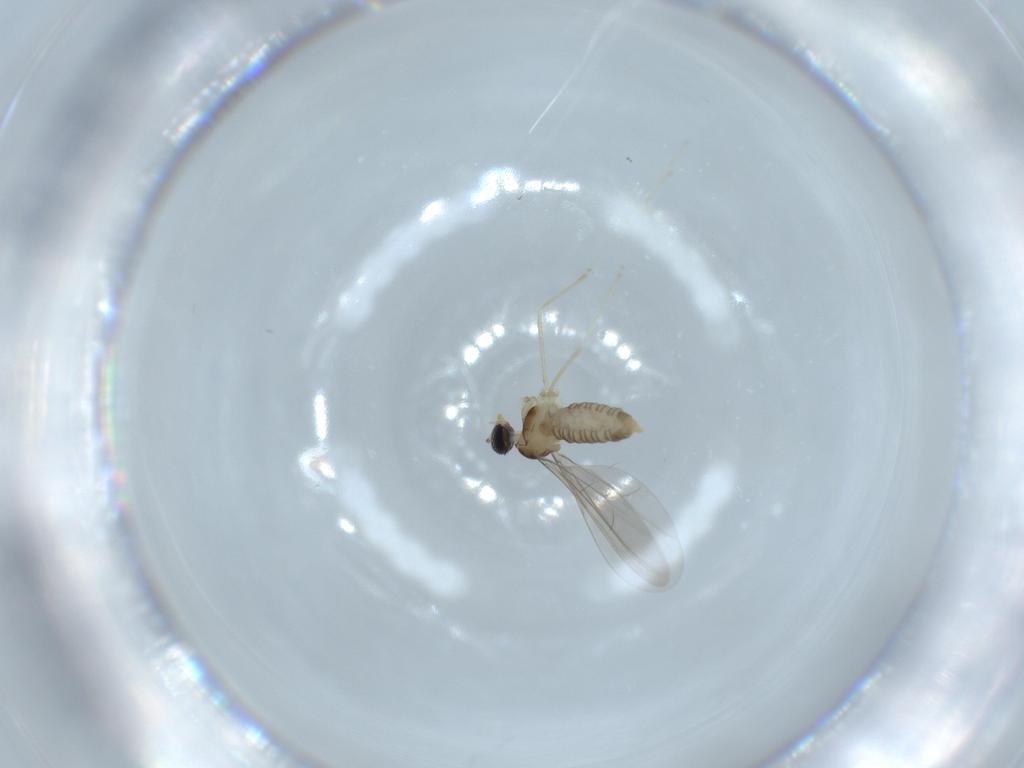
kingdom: Animalia
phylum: Arthropoda
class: Insecta
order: Diptera
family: Cecidomyiidae
